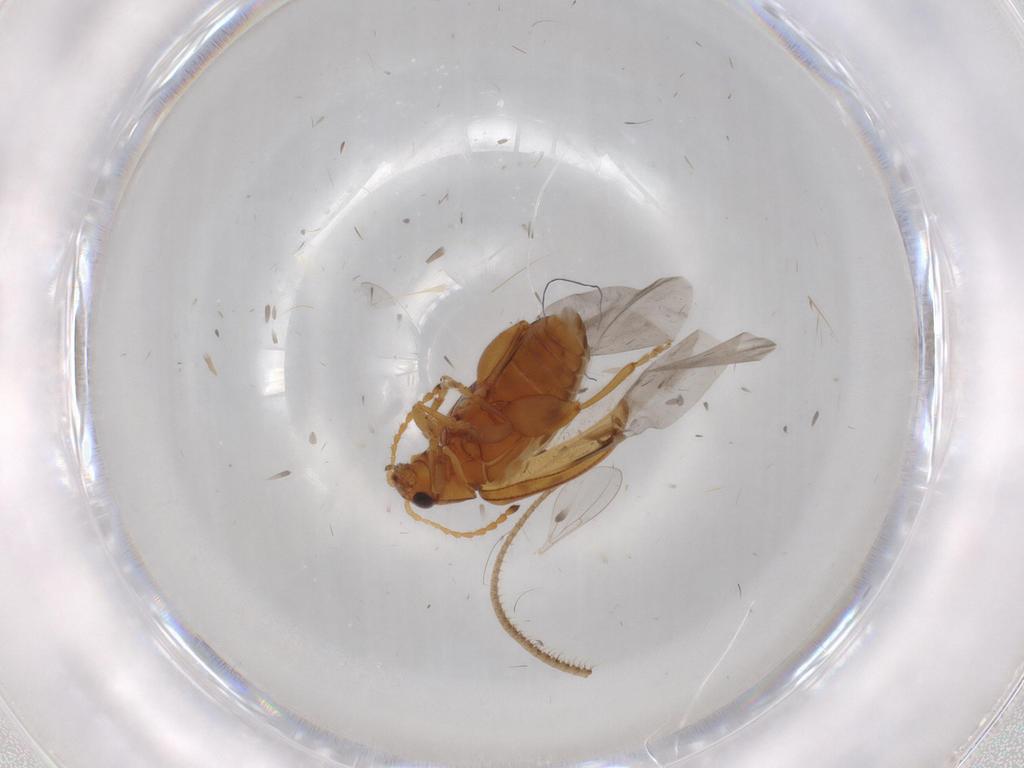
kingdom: Animalia
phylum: Arthropoda
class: Insecta
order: Coleoptera
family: Chrysomelidae
